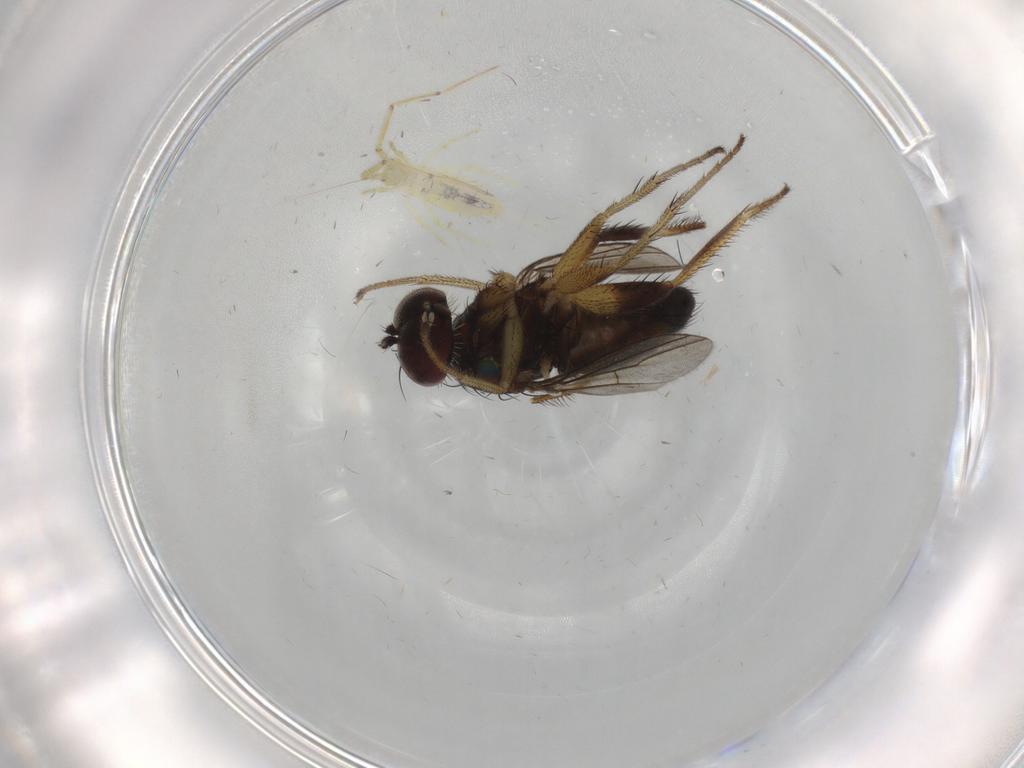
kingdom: Animalia
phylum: Arthropoda
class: Insecta
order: Diptera
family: Dolichopodidae
